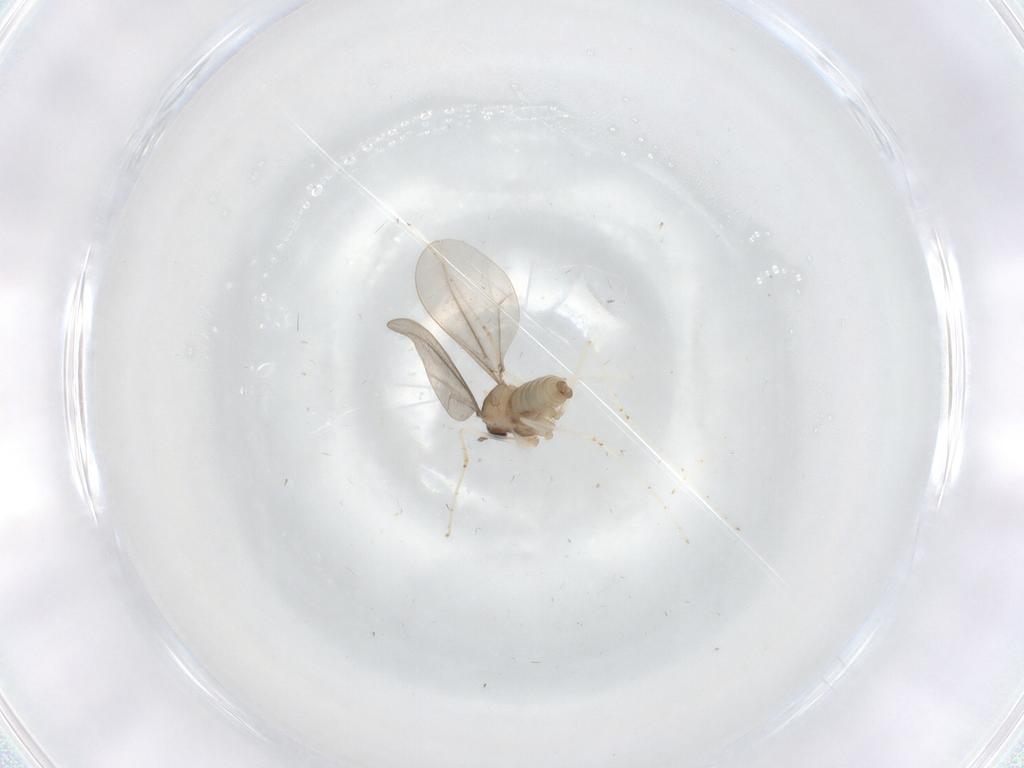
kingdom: Animalia
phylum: Arthropoda
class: Insecta
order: Diptera
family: Cecidomyiidae
